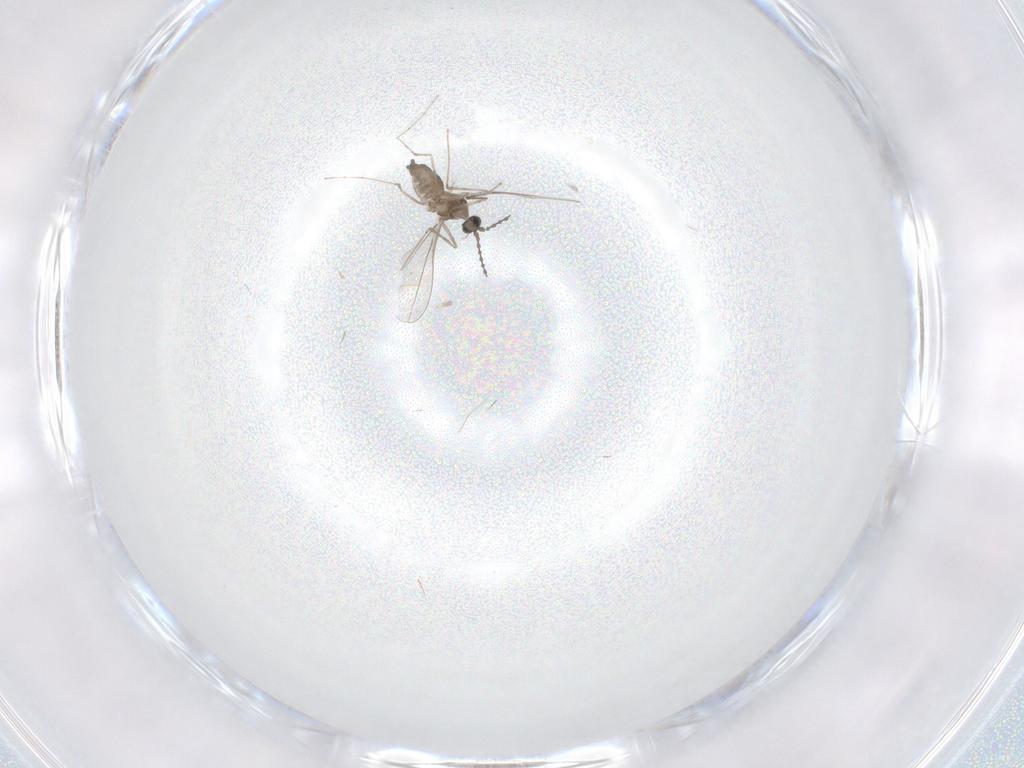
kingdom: Animalia
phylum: Arthropoda
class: Insecta
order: Diptera
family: Cecidomyiidae
